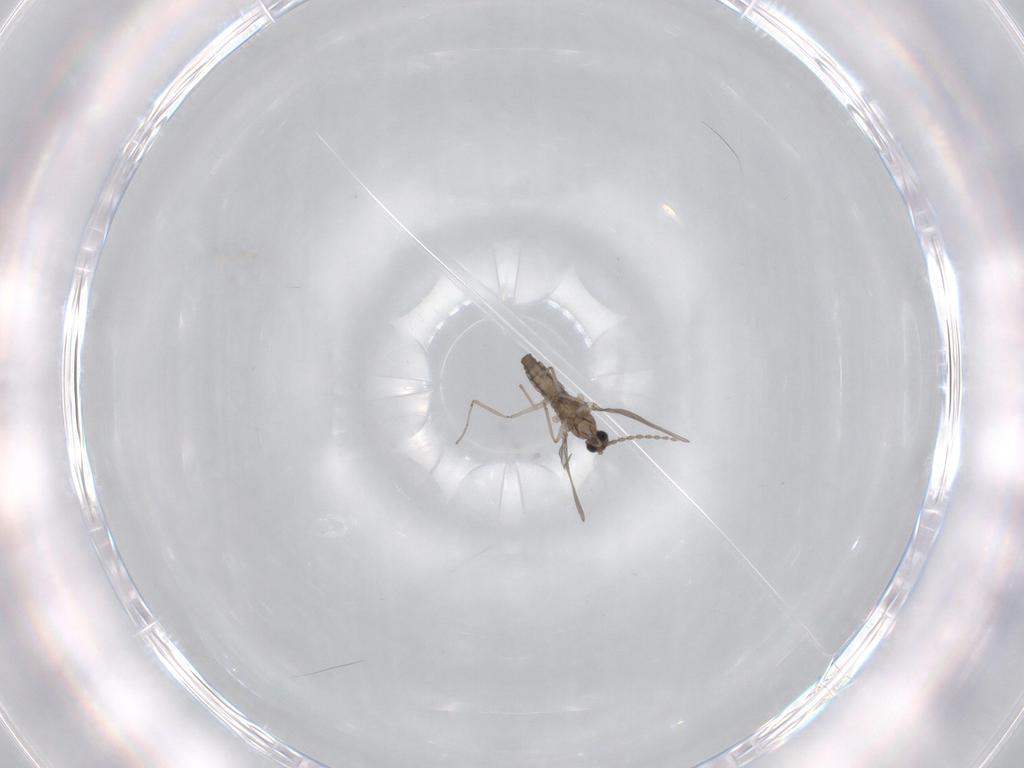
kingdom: Animalia
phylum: Arthropoda
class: Insecta
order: Diptera
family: Cecidomyiidae
